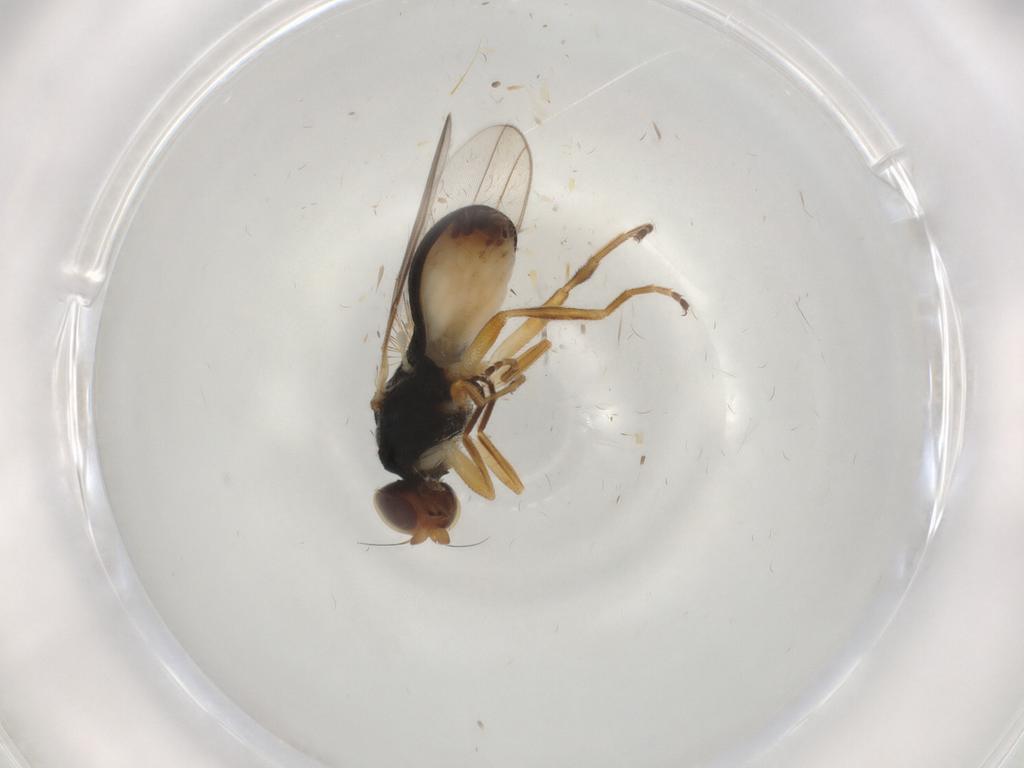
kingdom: Animalia
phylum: Arthropoda
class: Insecta
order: Diptera
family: Chloropidae
